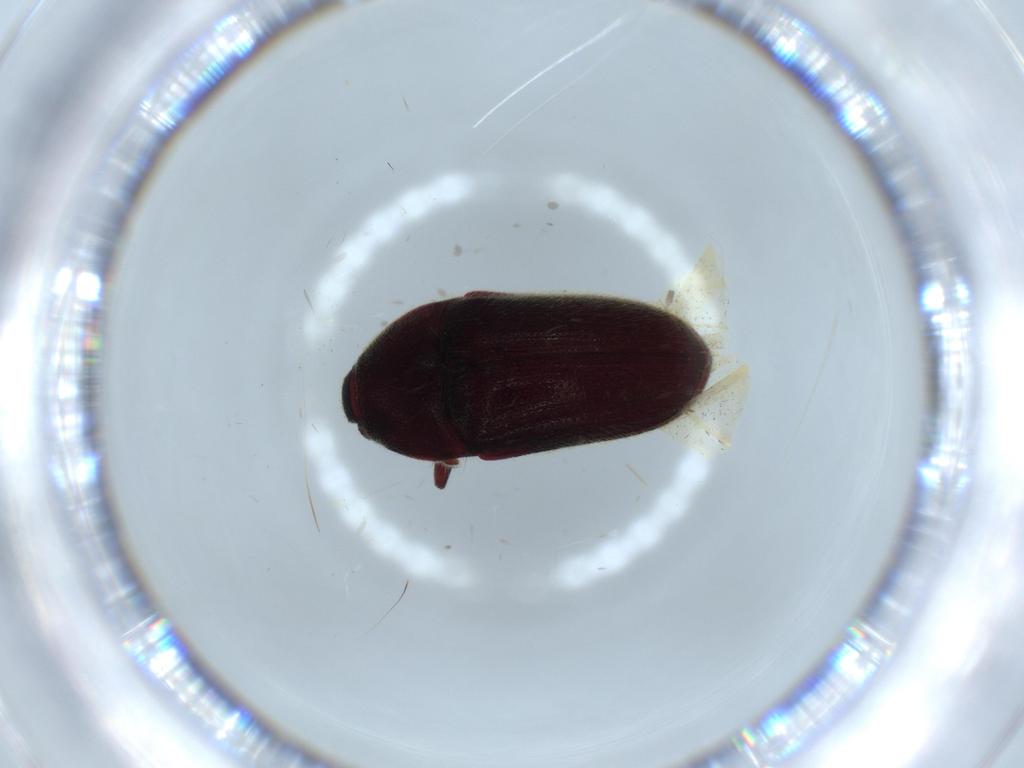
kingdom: Animalia
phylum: Arthropoda
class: Insecta
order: Coleoptera
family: Throscidae
